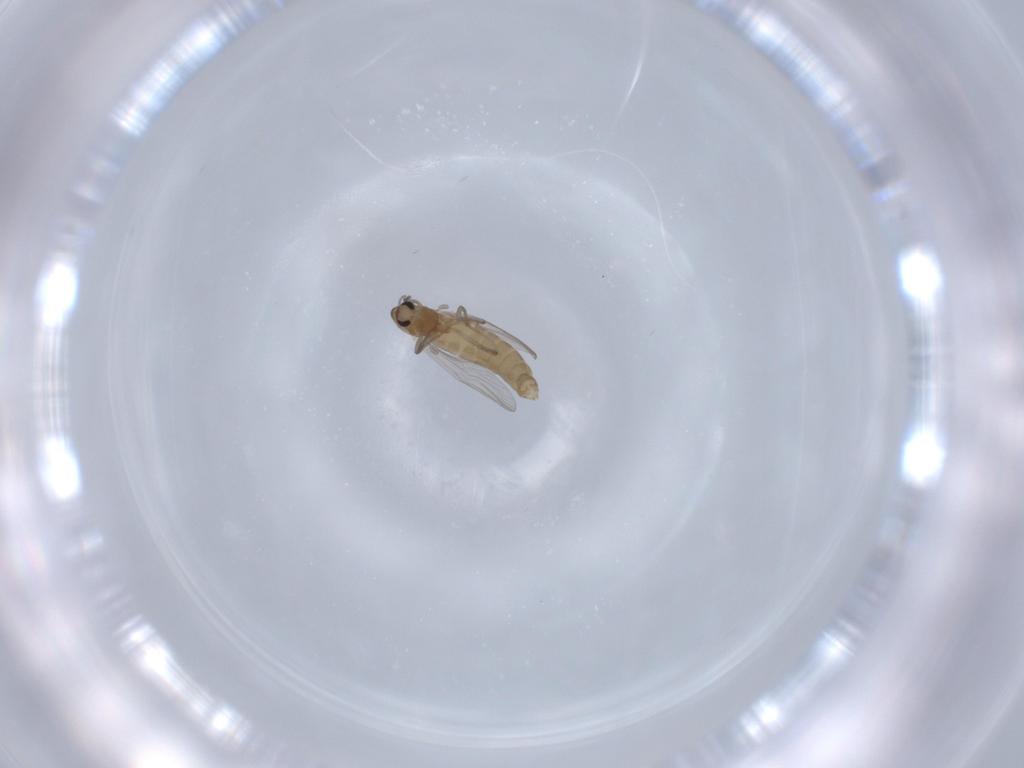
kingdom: Animalia
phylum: Arthropoda
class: Insecta
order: Diptera
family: Chironomidae
